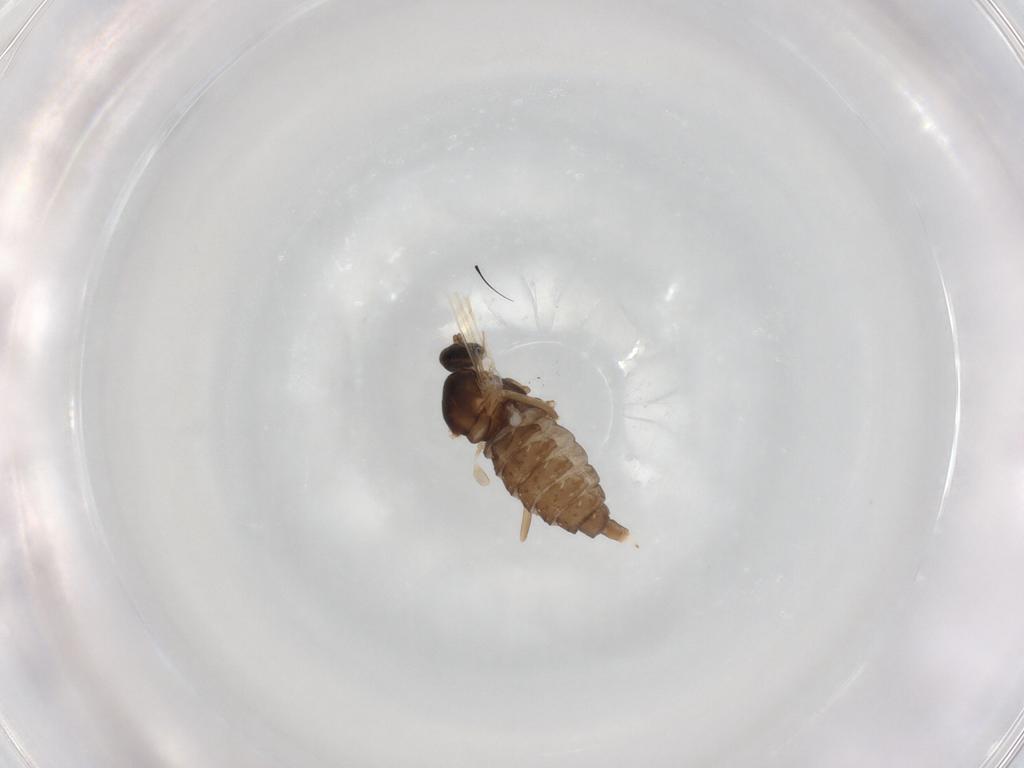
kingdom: Animalia
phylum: Arthropoda
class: Insecta
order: Diptera
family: Cecidomyiidae
